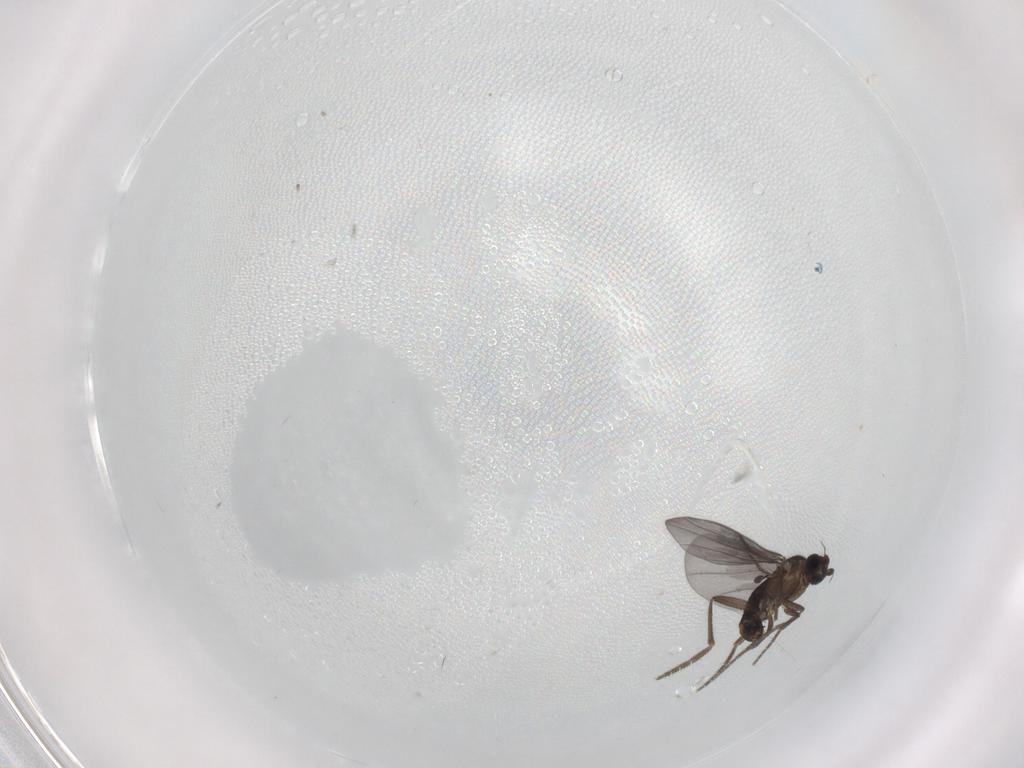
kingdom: Animalia
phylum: Arthropoda
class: Insecta
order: Diptera
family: Phoridae
